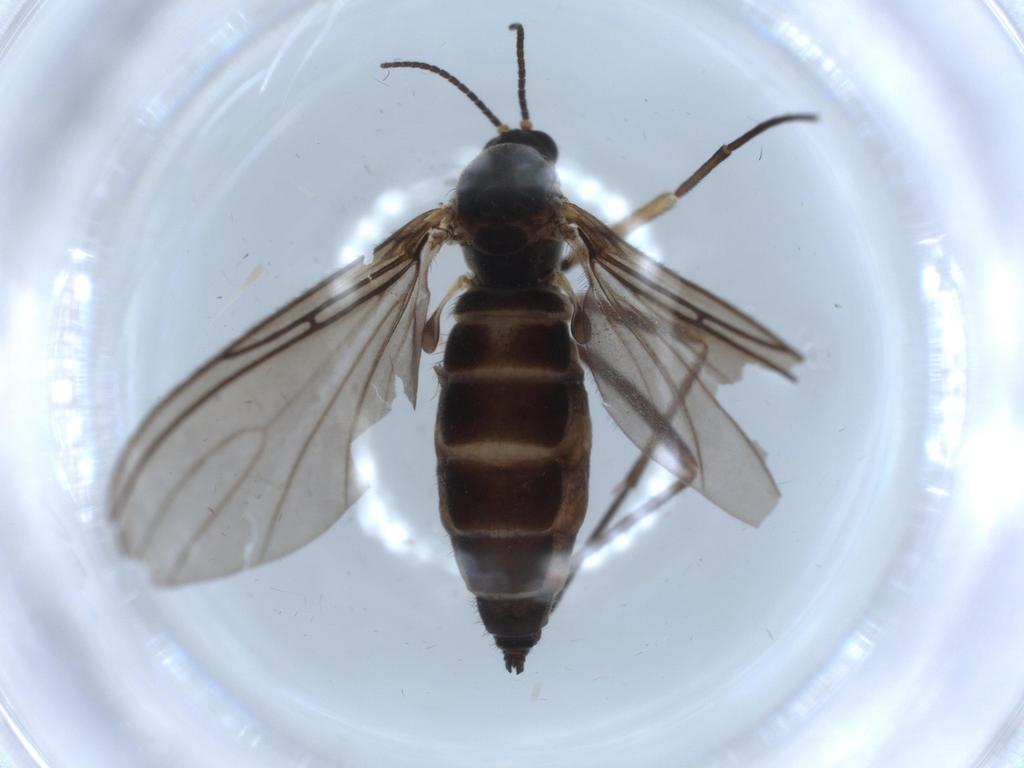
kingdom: Animalia
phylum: Arthropoda
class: Insecta
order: Diptera
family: Sciaridae
